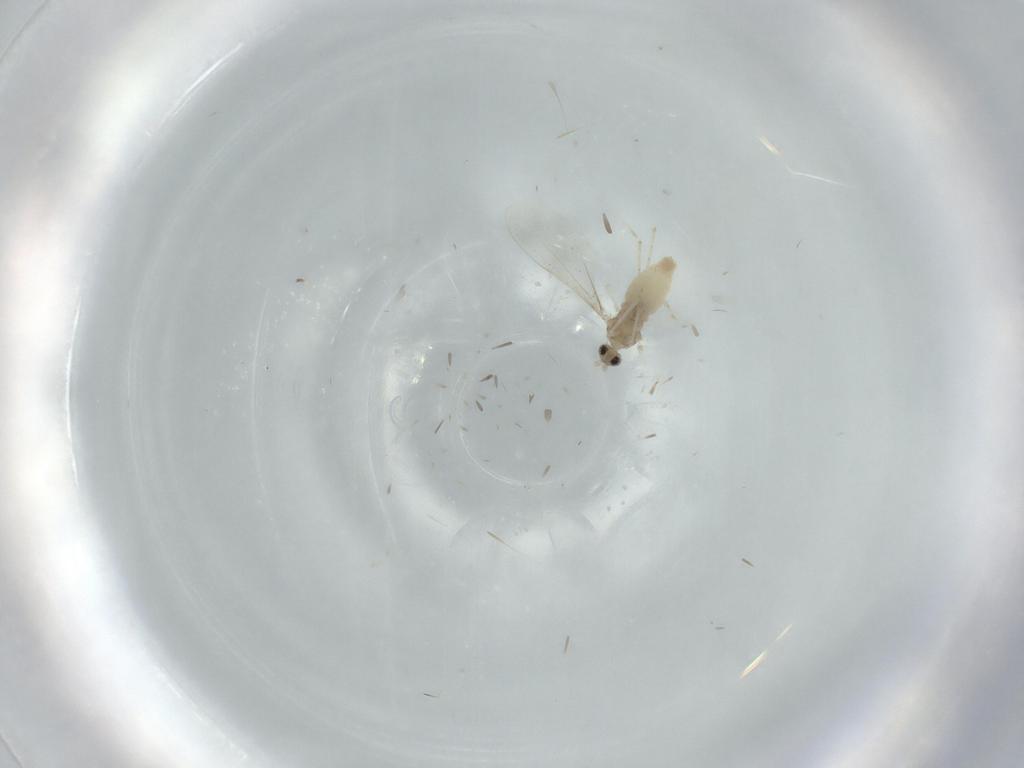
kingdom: Animalia
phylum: Arthropoda
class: Insecta
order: Diptera
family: Cecidomyiidae
